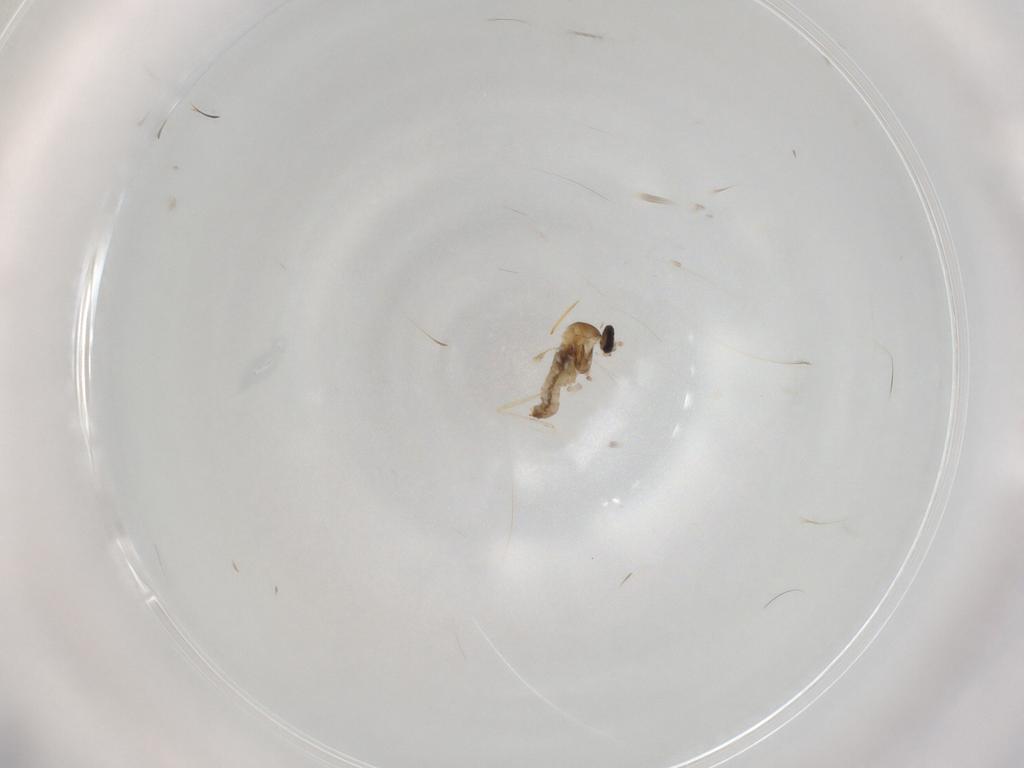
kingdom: Animalia
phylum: Arthropoda
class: Insecta
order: Diptera
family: Cecidomyiidae
